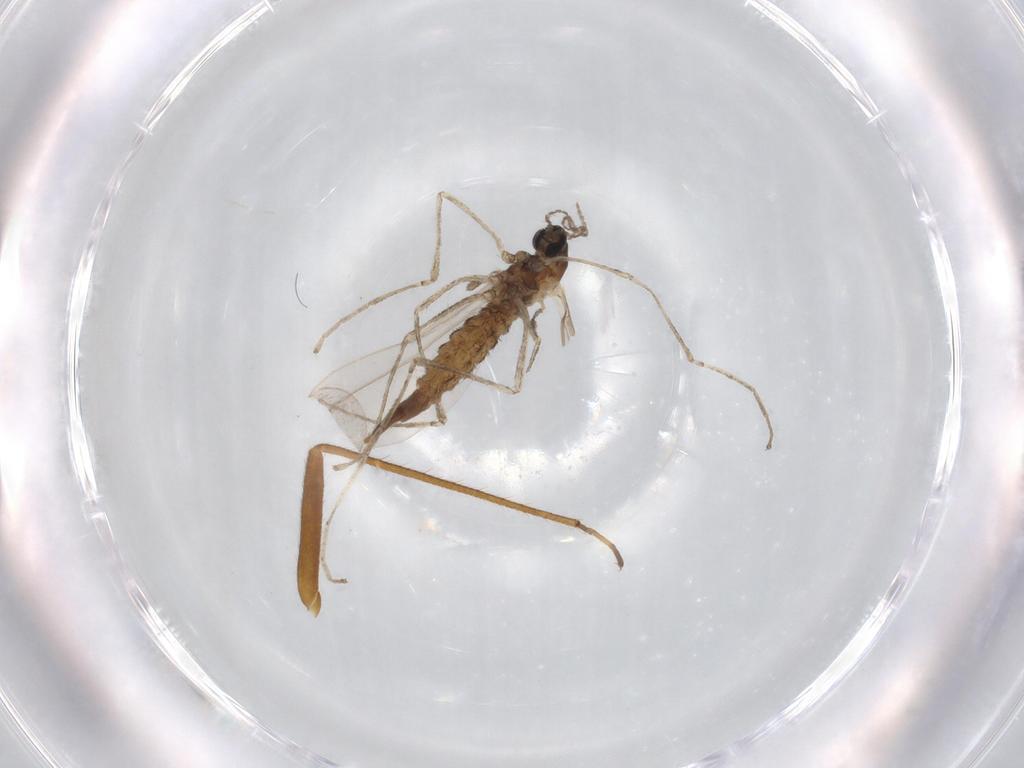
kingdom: Animalia
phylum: Arthropoda
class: Insecta
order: Diptera
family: Cecidomyiidae
